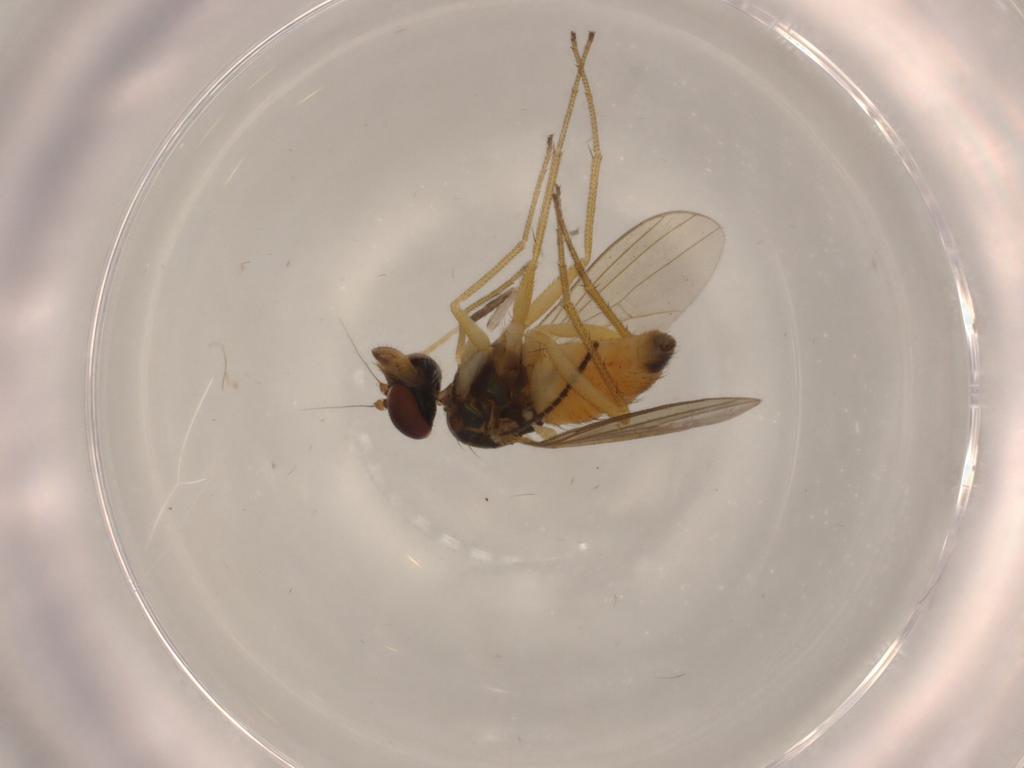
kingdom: Animalia
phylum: Arthropoda
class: Insecta
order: Diptera
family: Dolichopodidae
